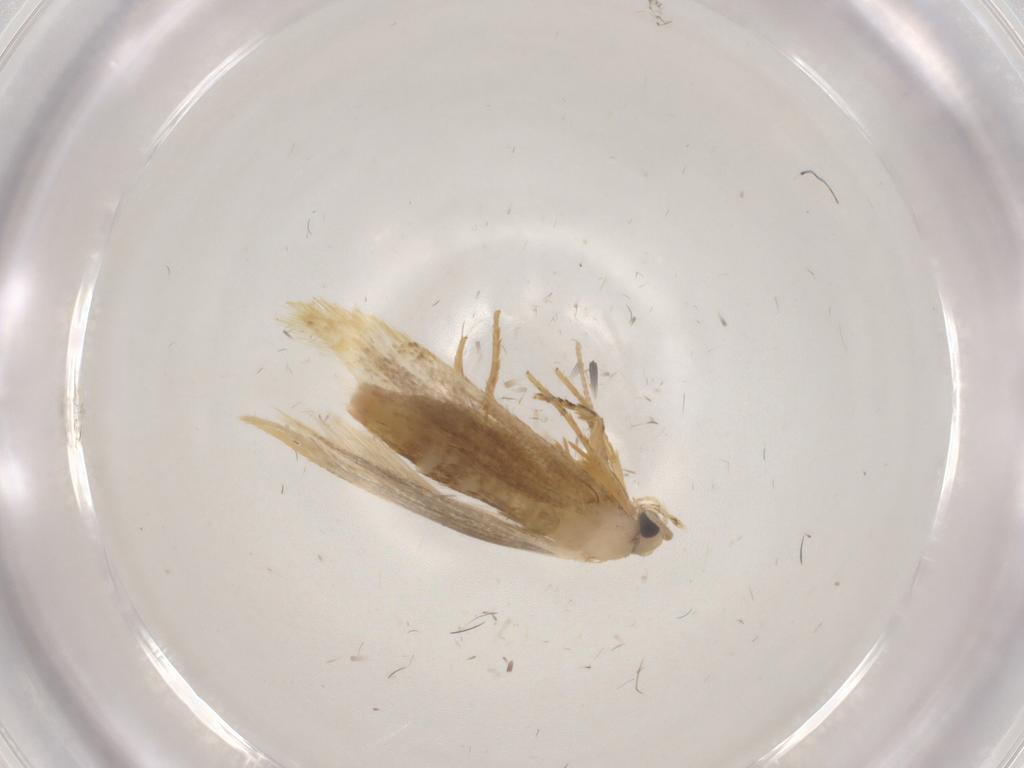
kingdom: Animalia
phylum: Arthropoda
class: Insecta
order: Lepidoptera
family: Tineidae
